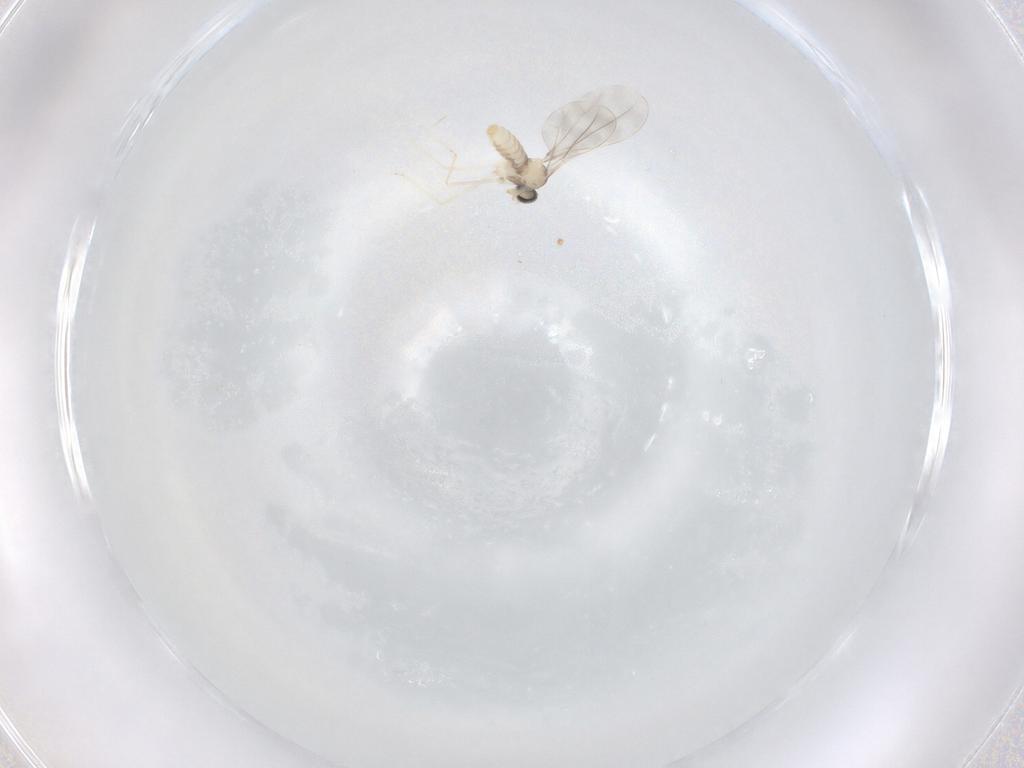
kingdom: Animalia
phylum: Arthropoda
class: Insecta
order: Diptera
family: Cecidomyiidae
